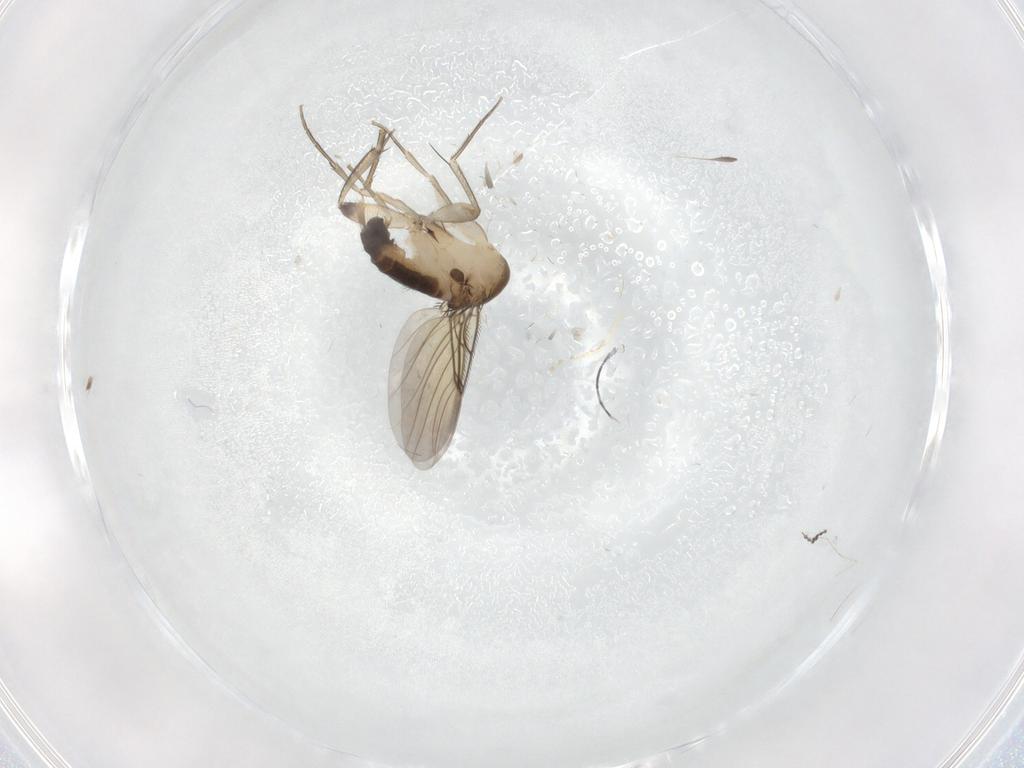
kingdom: Animalia
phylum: Arthropoda
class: Insecta
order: Diptera
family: Phoridae
